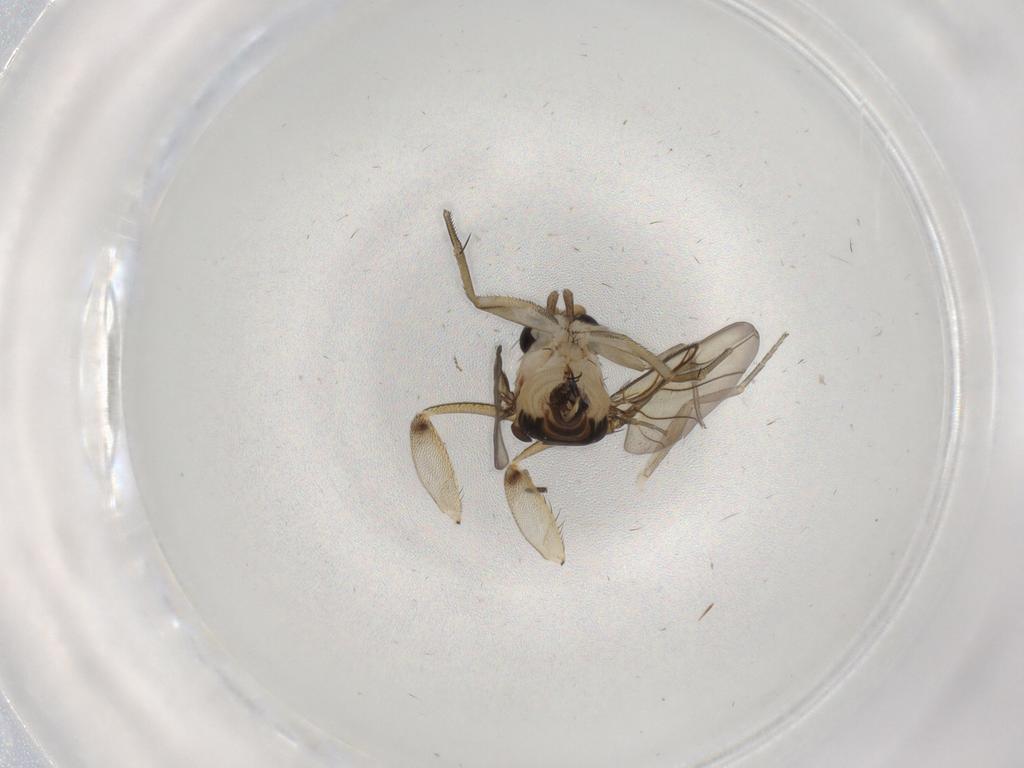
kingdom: Animalia
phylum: Arthropoda
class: Insecta
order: Diptera
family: Phoridae
